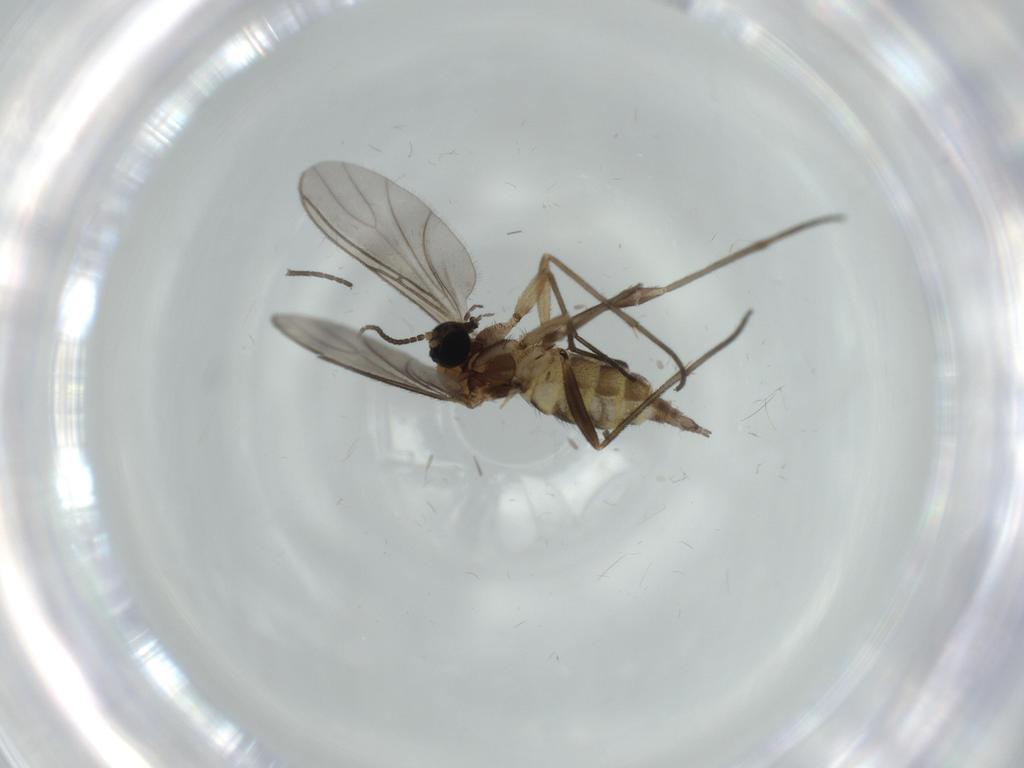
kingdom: Animalia
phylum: Arthropoda
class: Insecta
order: Diptera
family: Sciaridae
